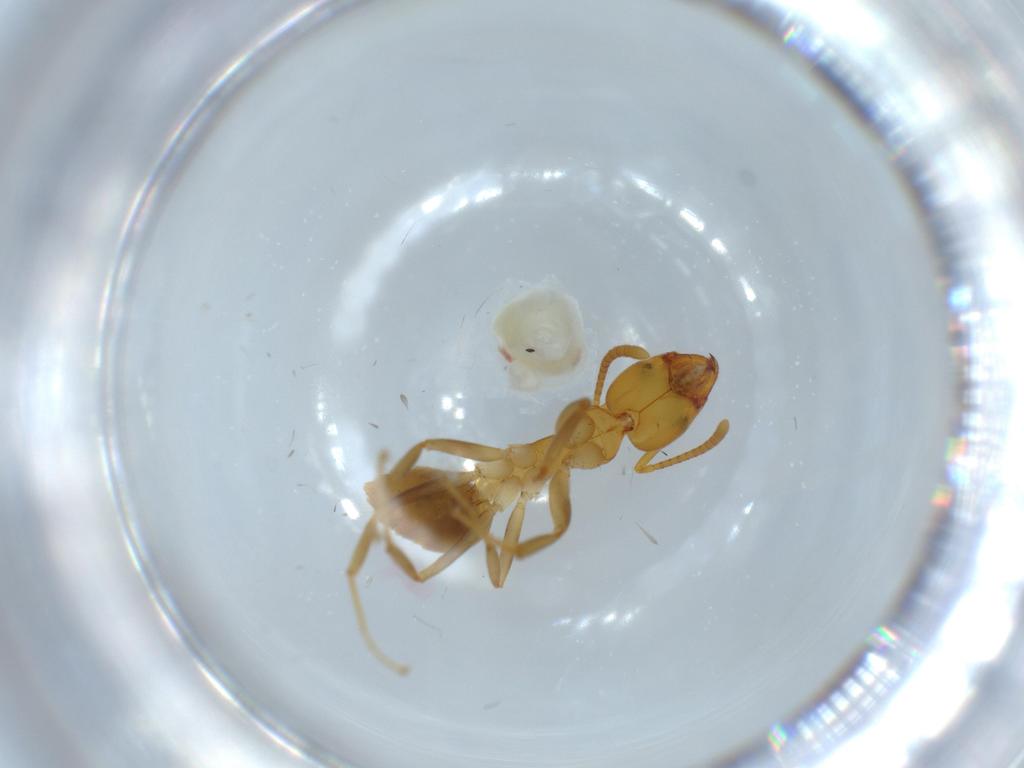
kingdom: Animalia
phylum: Arthropoda
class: Insecta
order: Hymenoptera
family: Formicidae
